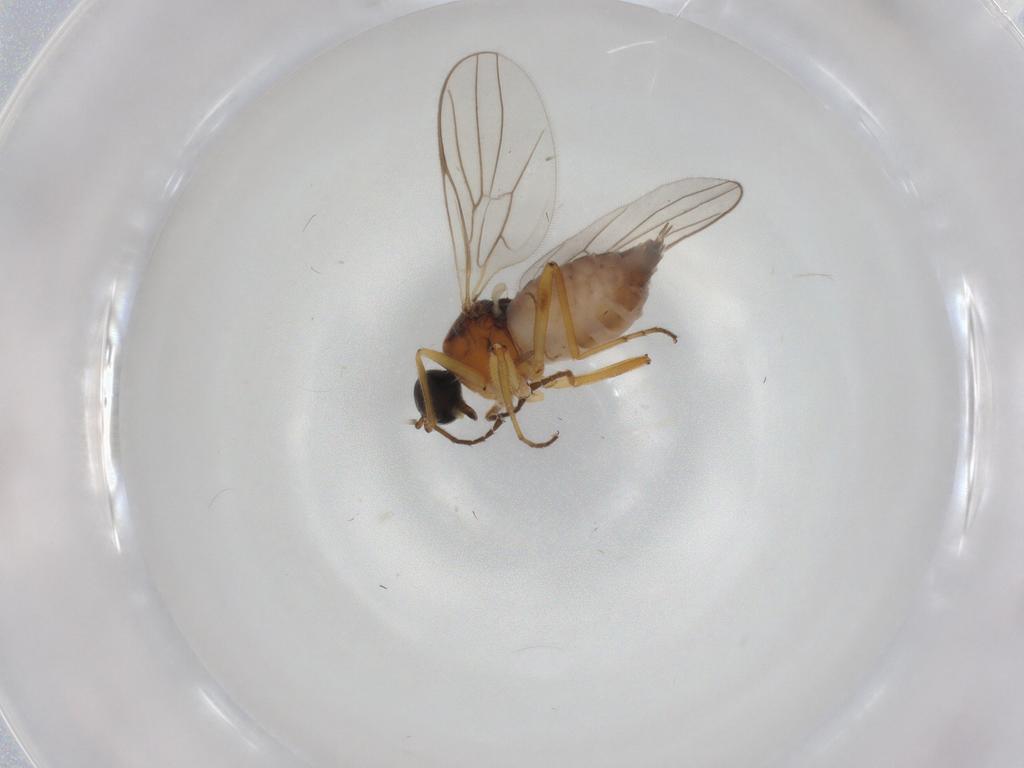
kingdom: Animalia
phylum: Arthropoda
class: Insecta
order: Diptera
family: Hybotidae
